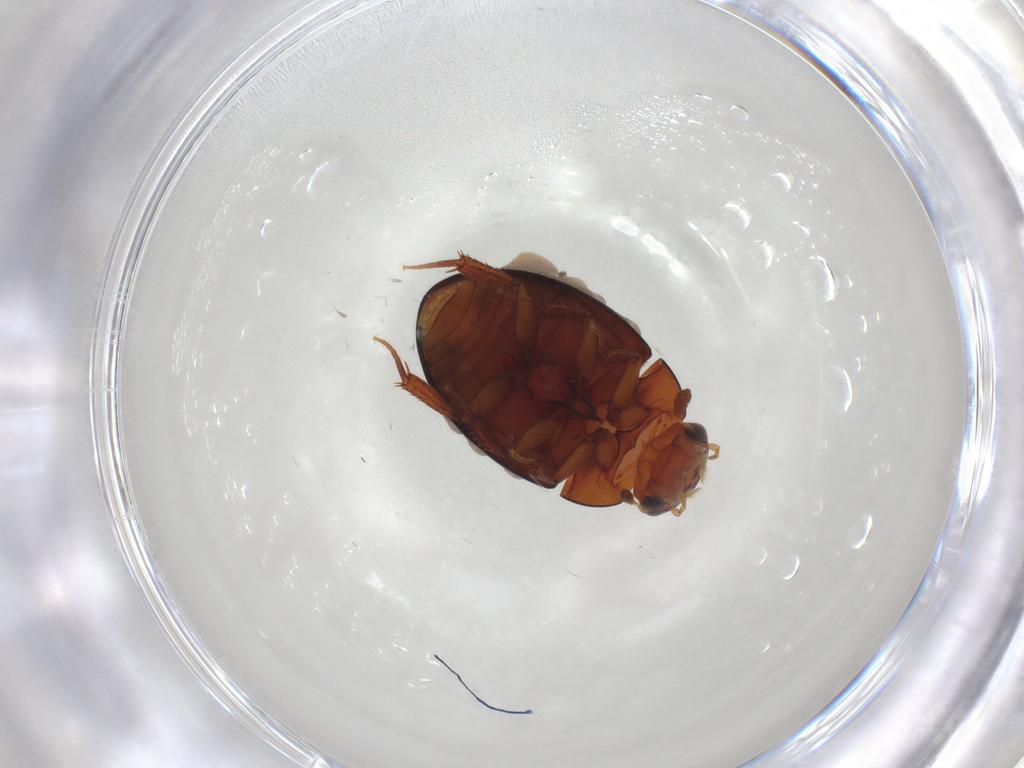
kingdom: Animalia
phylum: Arthropoda
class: Insecta
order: Coleoptera
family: Hydrophilidae
